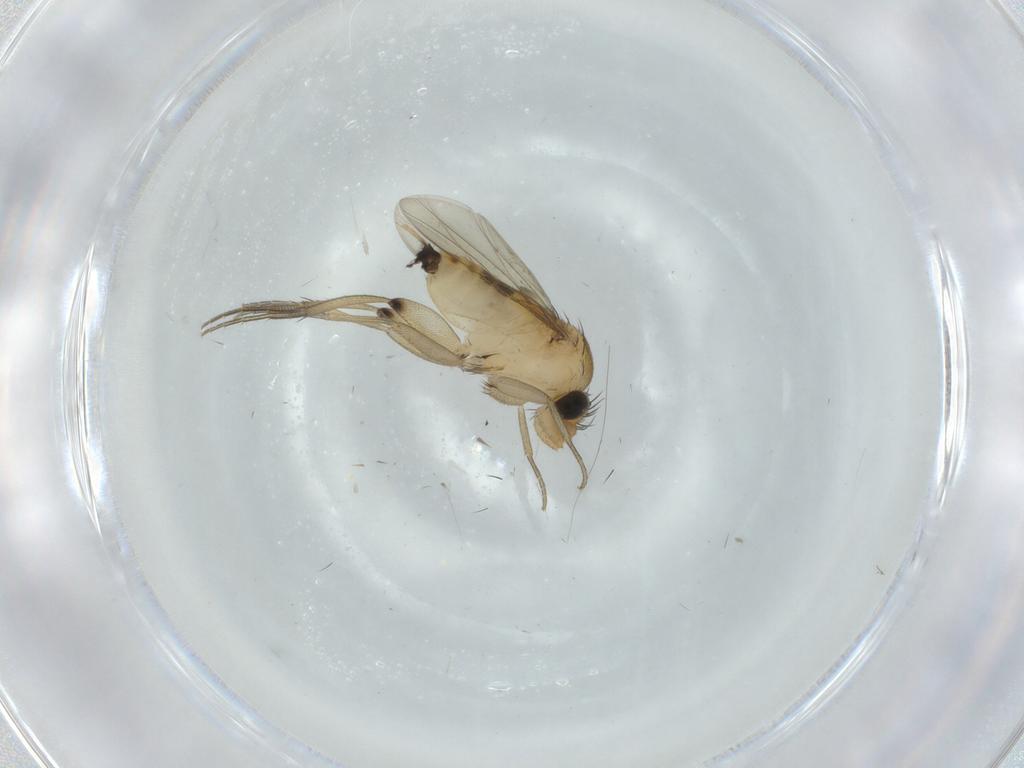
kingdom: Animalia
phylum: Arthropoda
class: Insecta
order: Diptera
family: Phoridae
